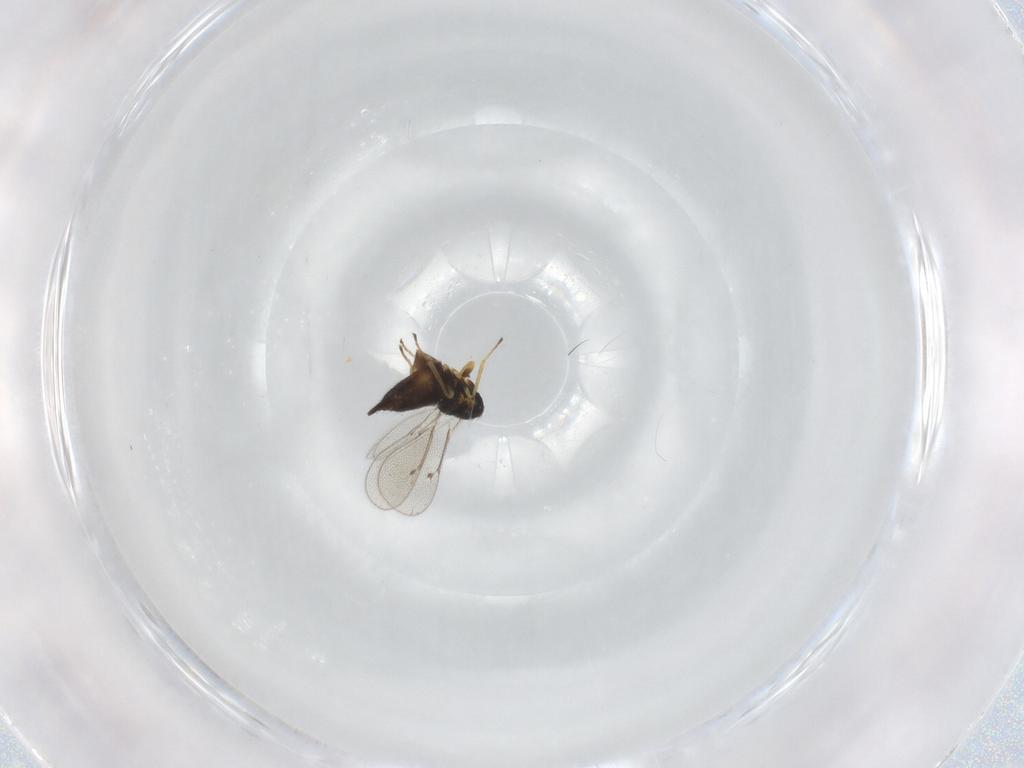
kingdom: Animalia
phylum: Arthropoda
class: Insecta
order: Hymenoptera
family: Eulophidae
